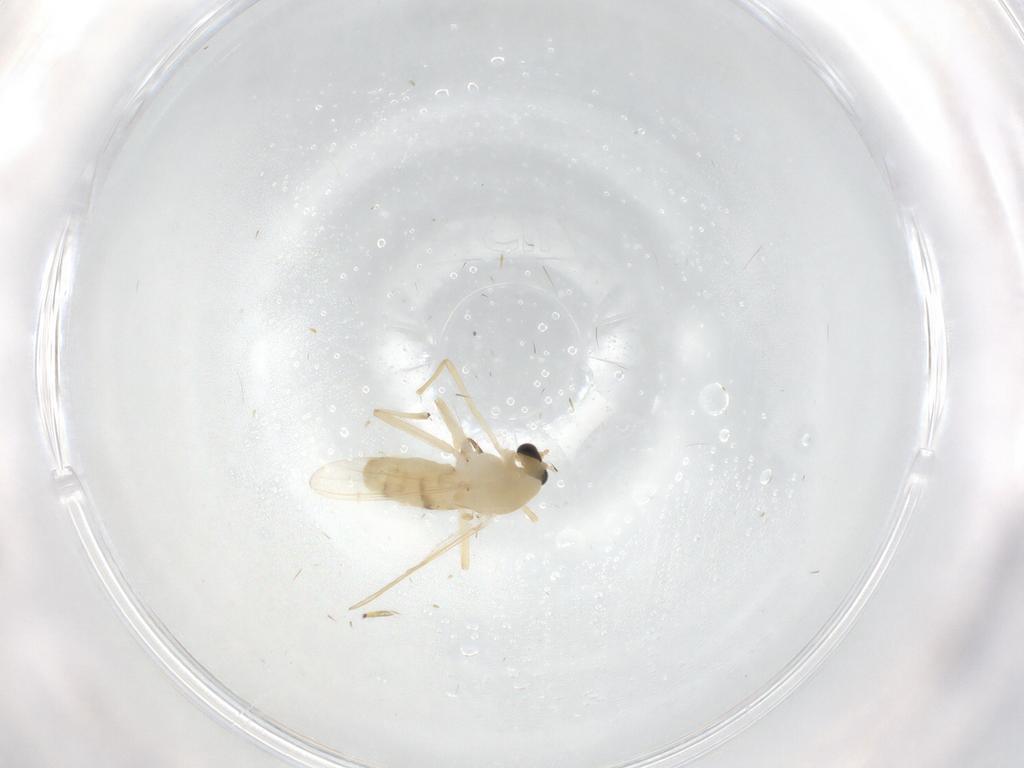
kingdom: Animalia
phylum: Arthropoda
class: Insecta
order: Diptera
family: Chironomidae
